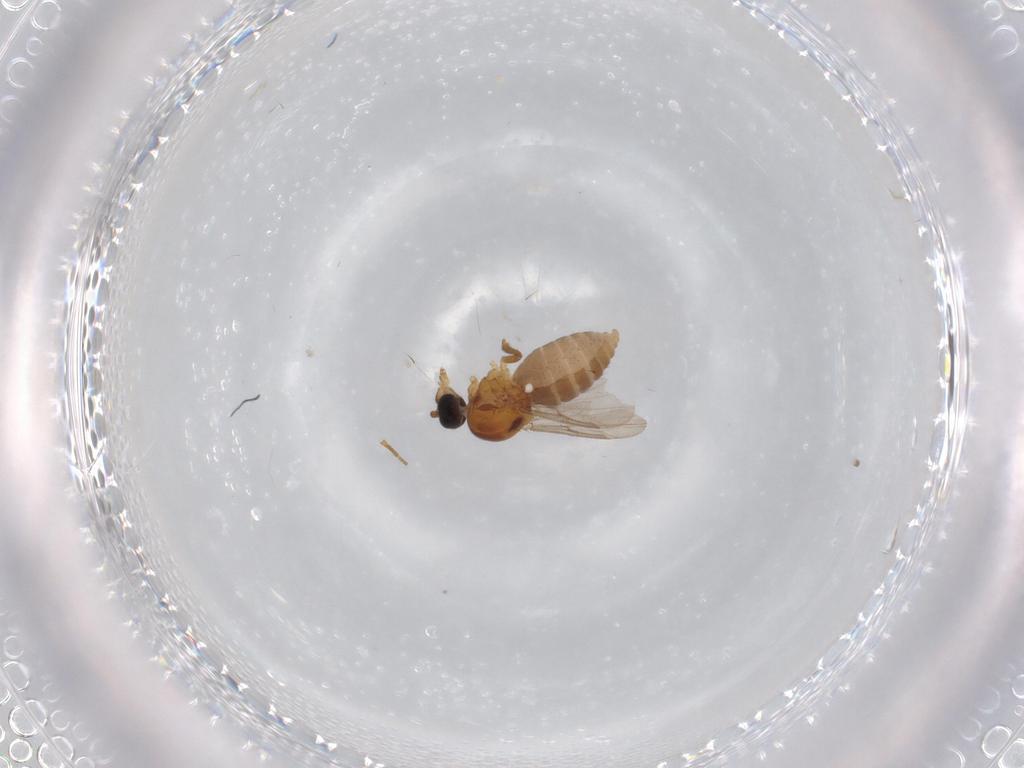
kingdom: Animalia
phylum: Arthropoda
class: Insecta
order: Diptera
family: Ceratopogonidae
